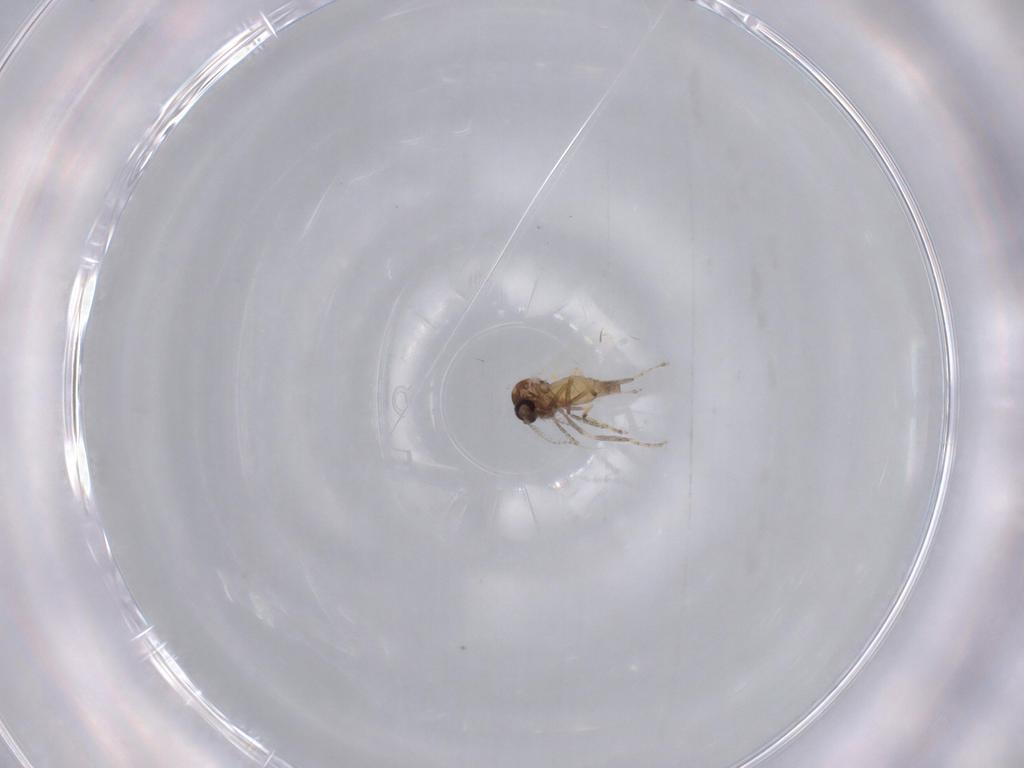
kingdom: Animalia
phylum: Arthropoda
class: Insecta
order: Diptera
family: Ceratopogonidae
